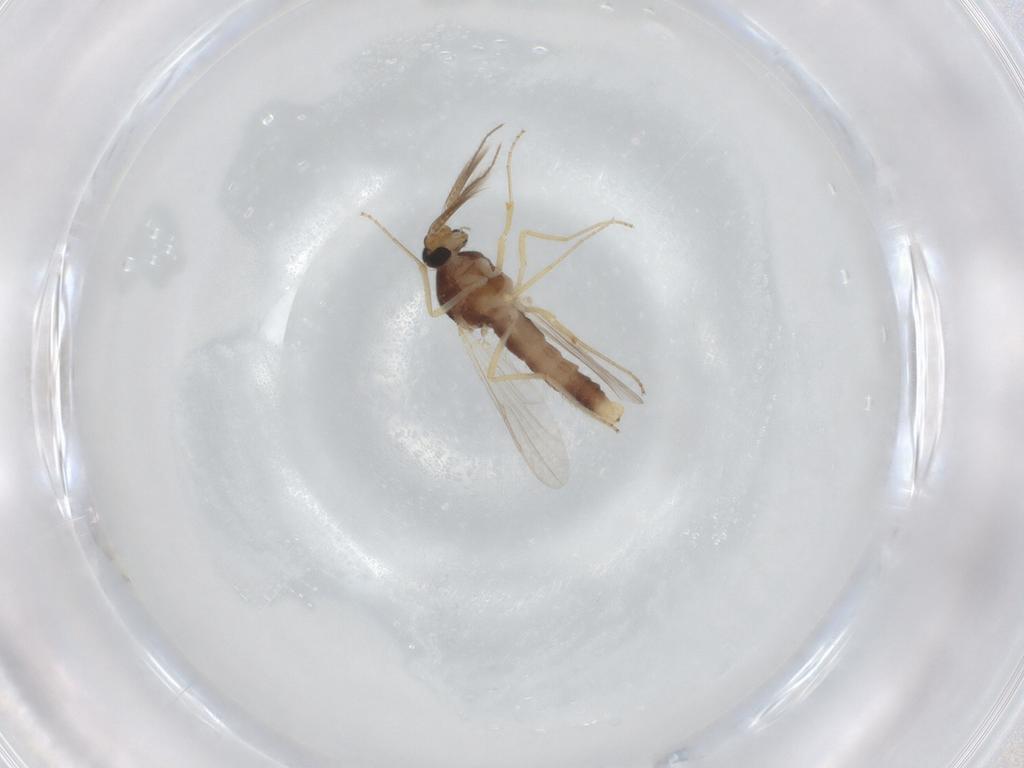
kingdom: Animalia
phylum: Arthropoda
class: Insecta
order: Diptera
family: Ceratopogonidae
